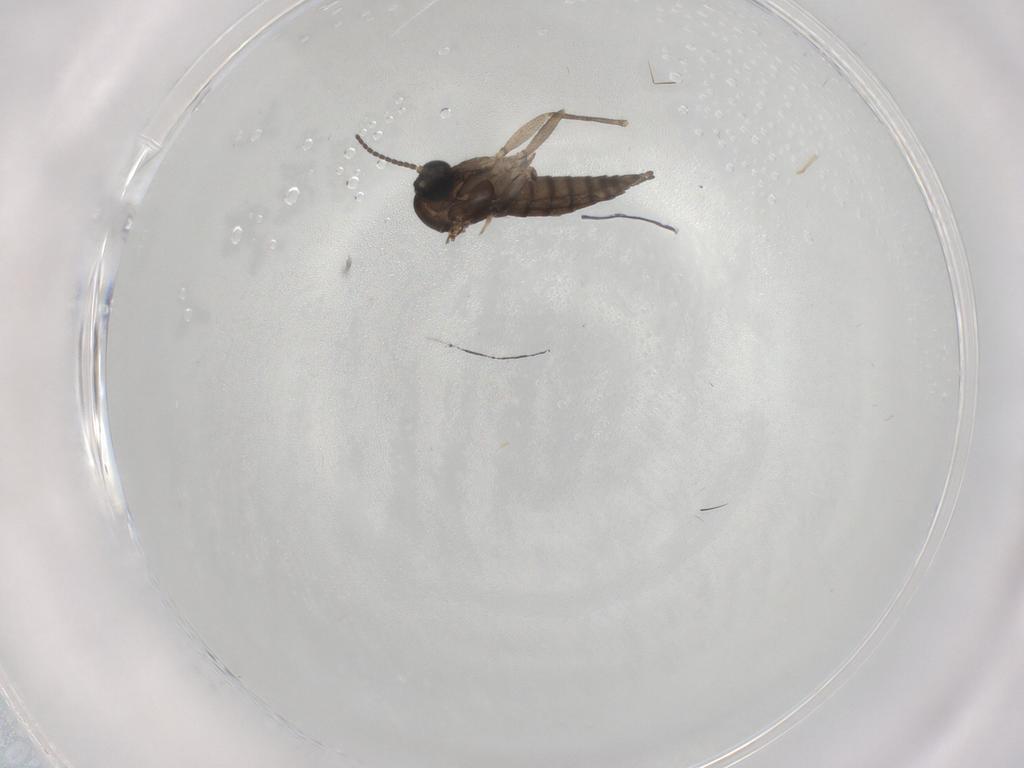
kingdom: Animalia
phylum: Arthropoda
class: Insecta
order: Diptera
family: Sciaridae
